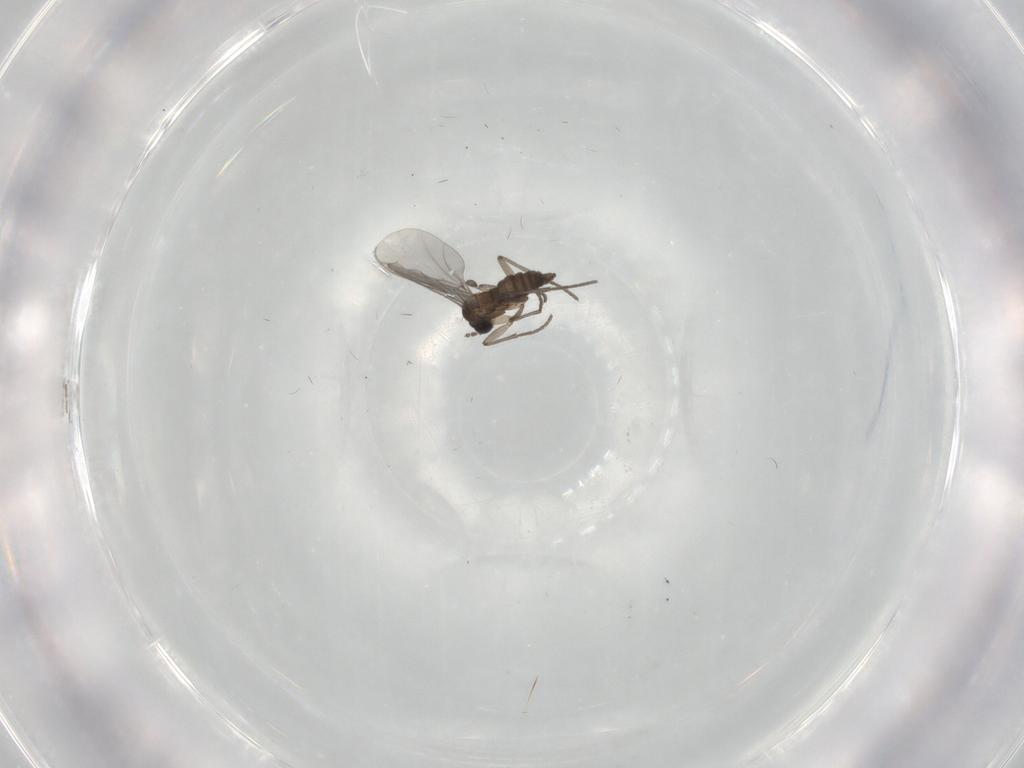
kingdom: Animalia
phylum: Arthropoda
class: Insecta
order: Diptera
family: Sciaridae
